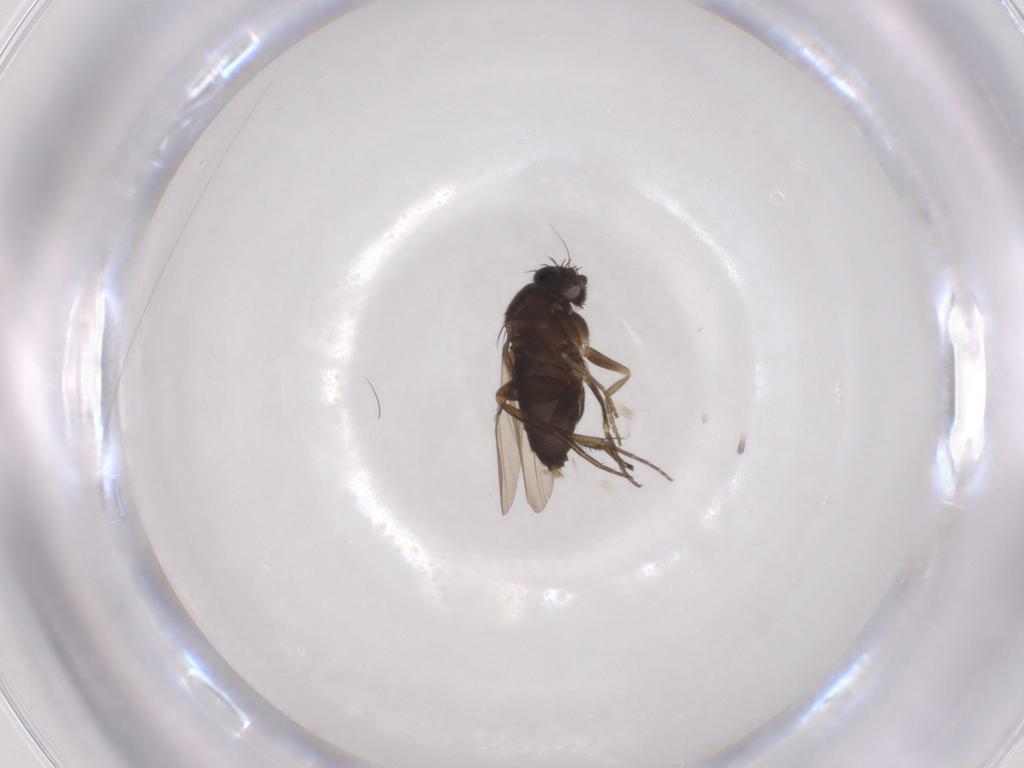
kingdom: Animalia
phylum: Arthropoda
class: Insecta
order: Diptera
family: Phoridae
